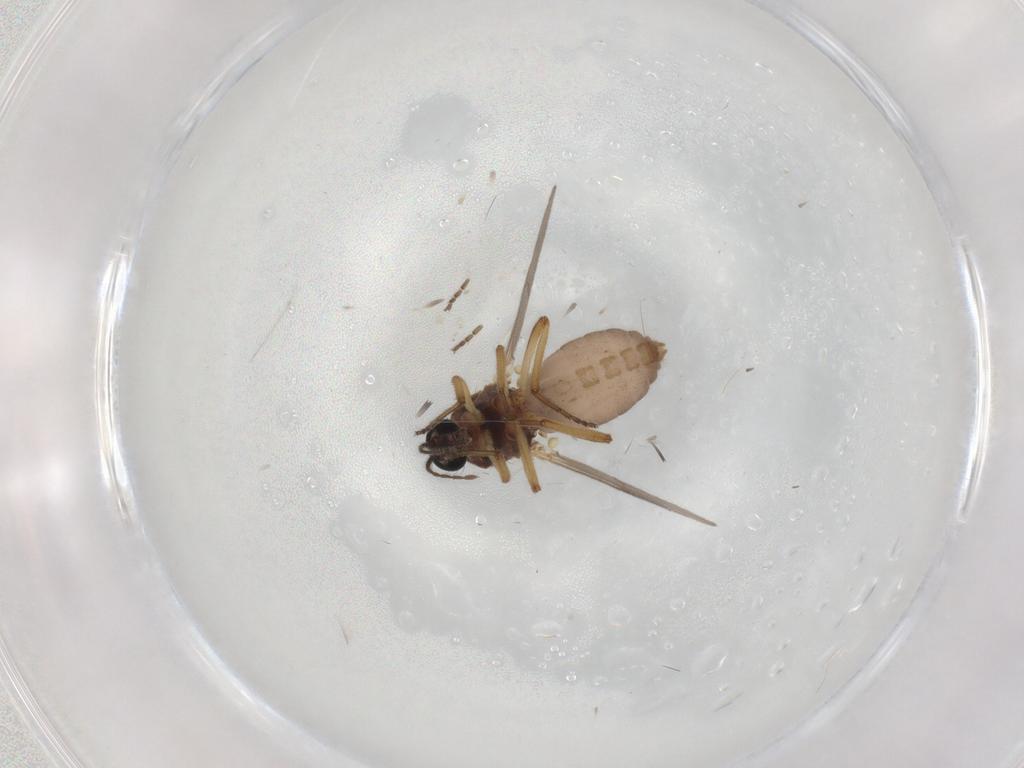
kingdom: Animalia
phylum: Arthropoda
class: Insecta
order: Diptera
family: Ceratopogonidae
